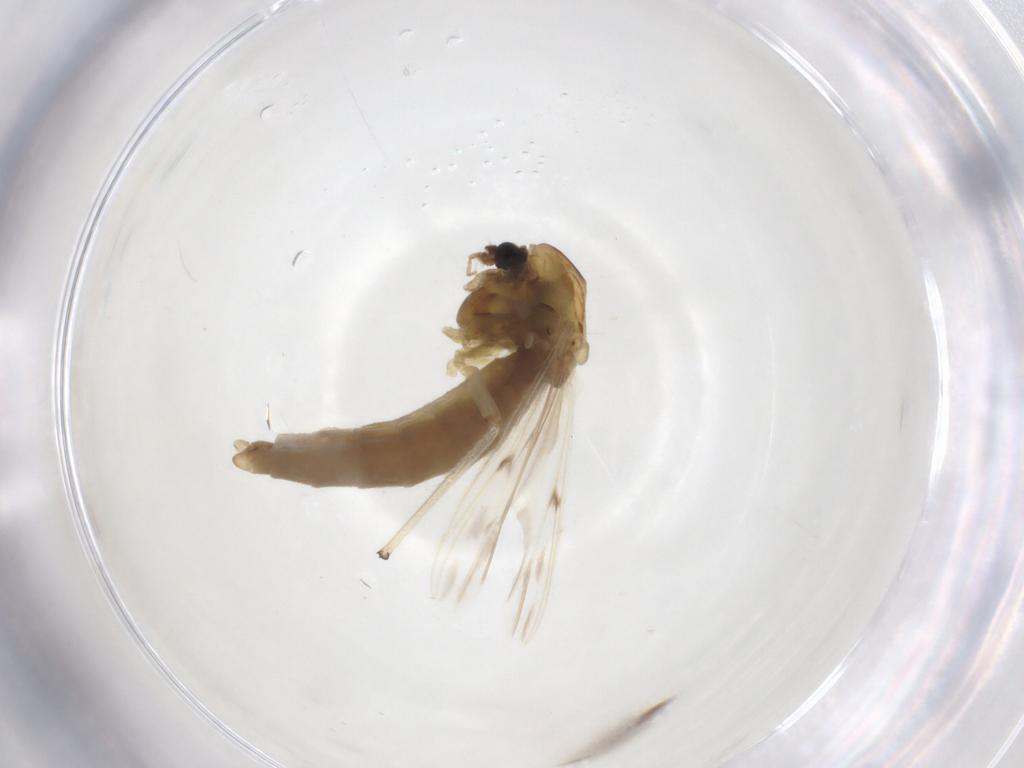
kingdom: Animalia
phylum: Arthropoda
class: Insecta
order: Diptera
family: Chironomidae
